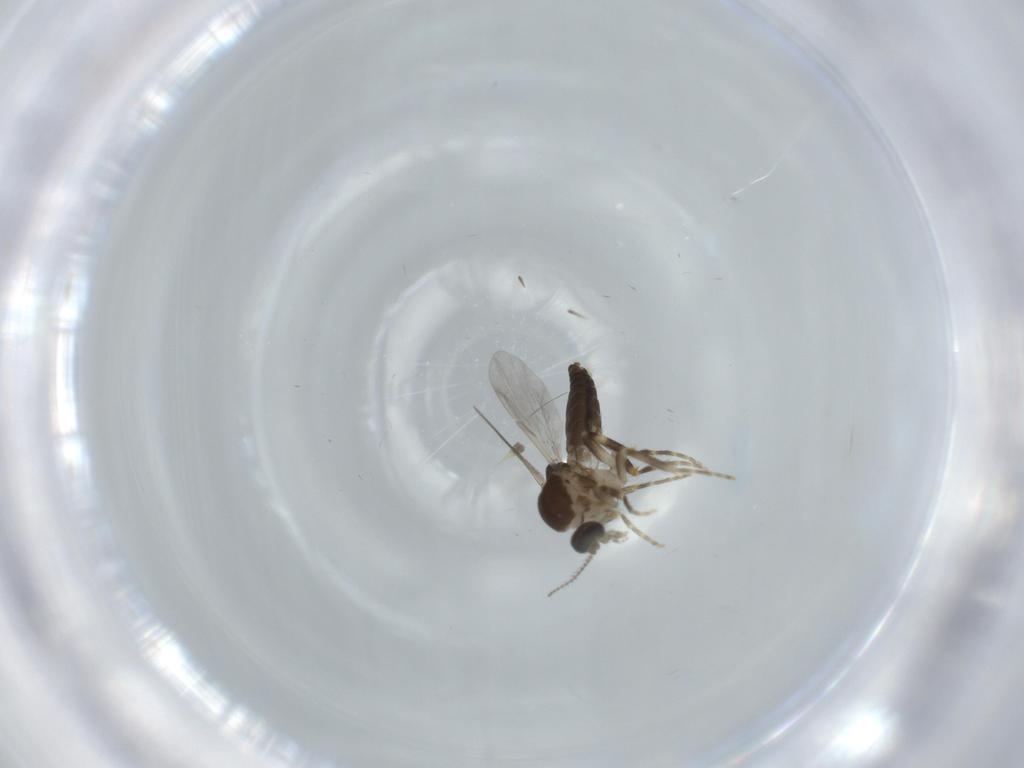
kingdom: Animalia
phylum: Arthropoda
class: Insecta
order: Diptera
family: Ceratopogonidae
